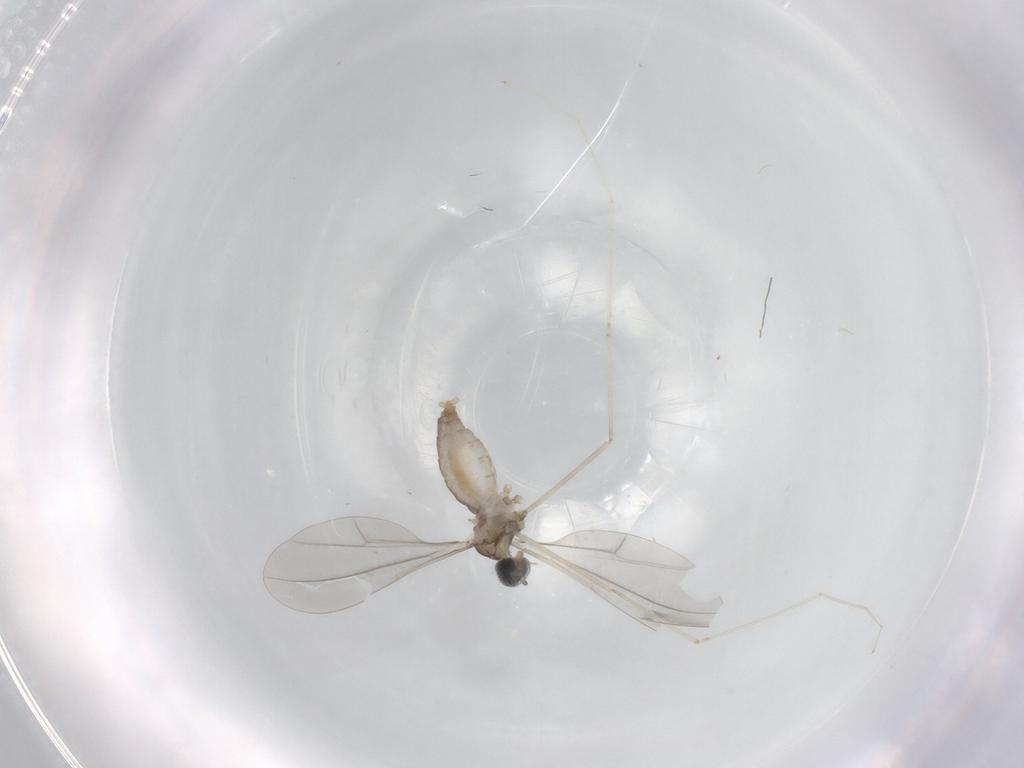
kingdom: Animalia
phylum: Arthropoda
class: Insecta
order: Diptera
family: Cecidomyiidae
